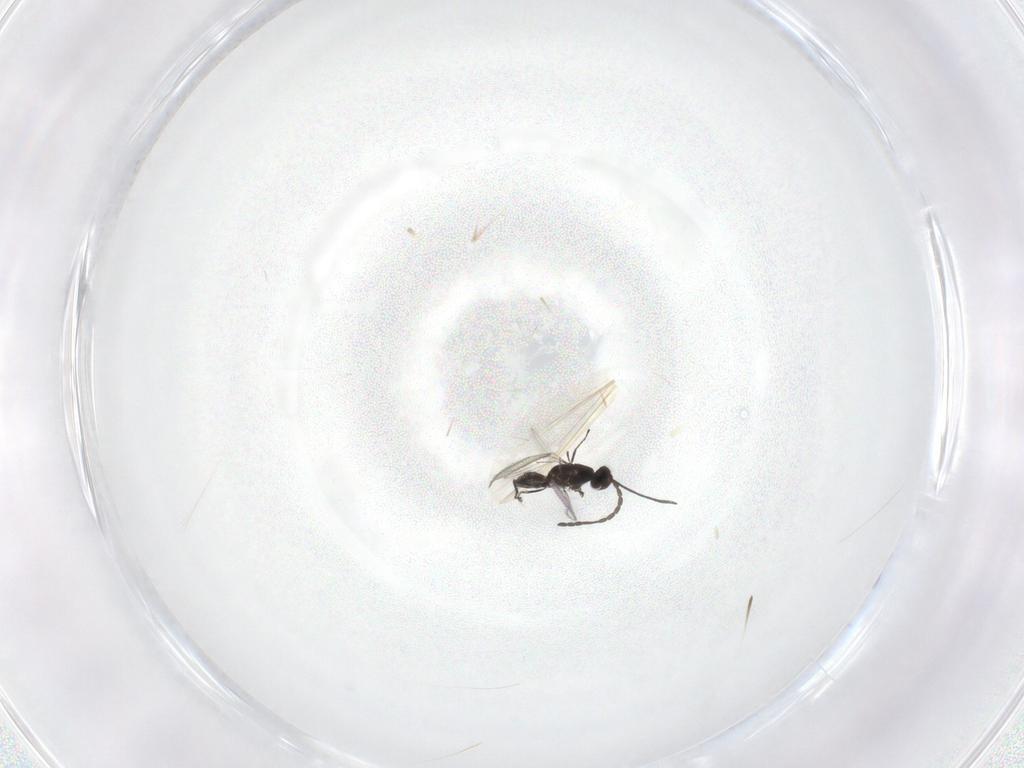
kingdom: Animalia
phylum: Arthropoda
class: Insecta
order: Hymenoptera
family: Mymaridae
